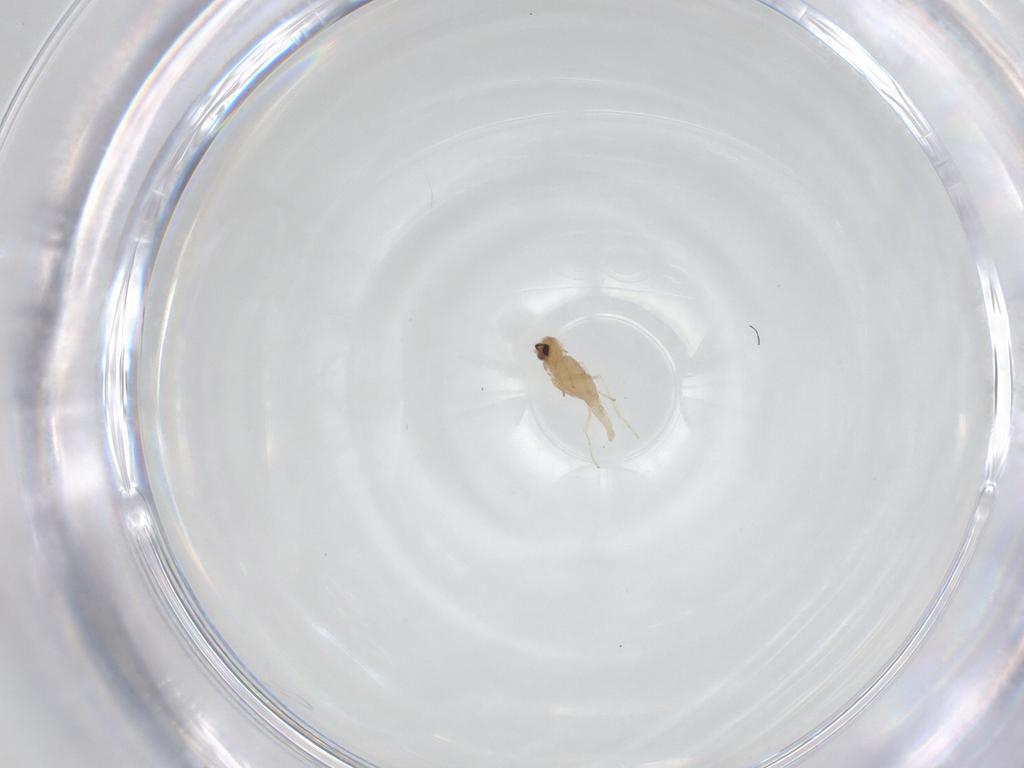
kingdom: Animalia
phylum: Arthropoda
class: Insecta
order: Diptera
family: Cecidomyiidae
